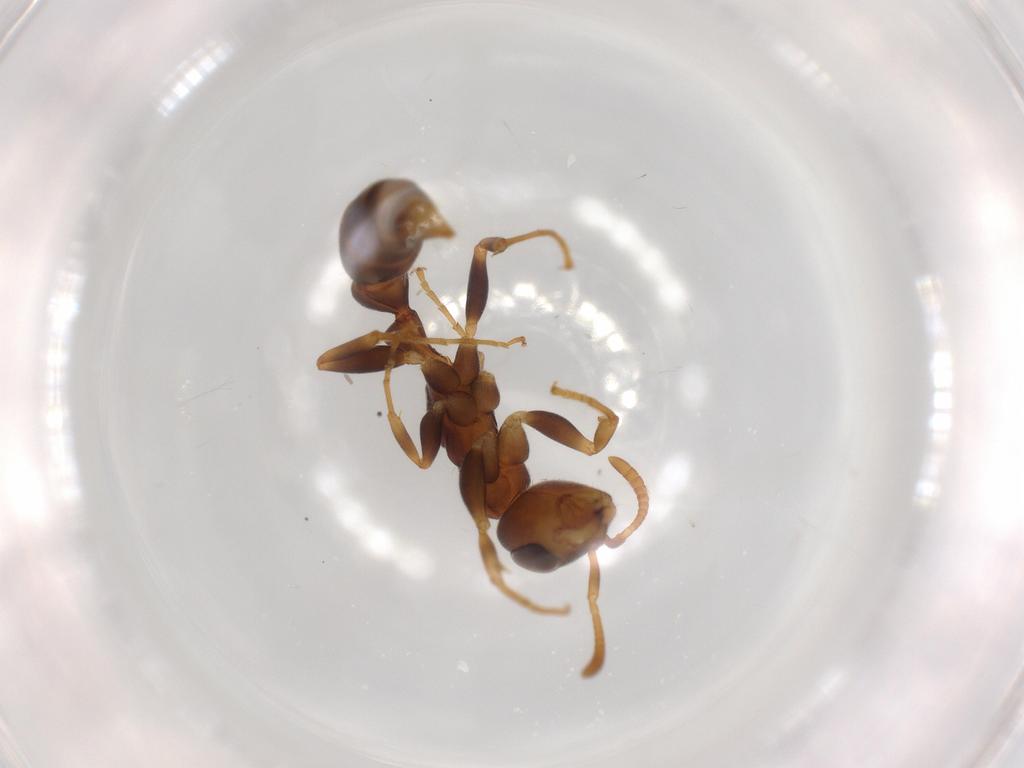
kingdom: Animalia
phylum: Arthropoda
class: Insecta
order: Hymenoptera
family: Formicidae
